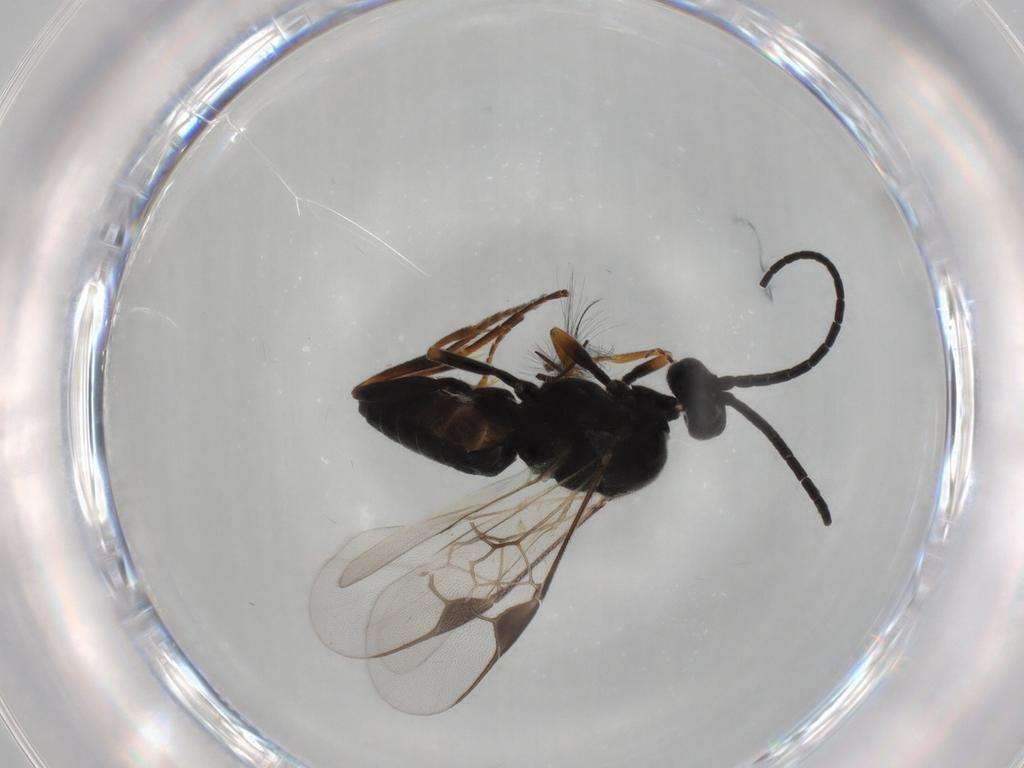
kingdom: Animalia
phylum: Arthropoda
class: Insecta
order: Hymenoptera
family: Braconidae
